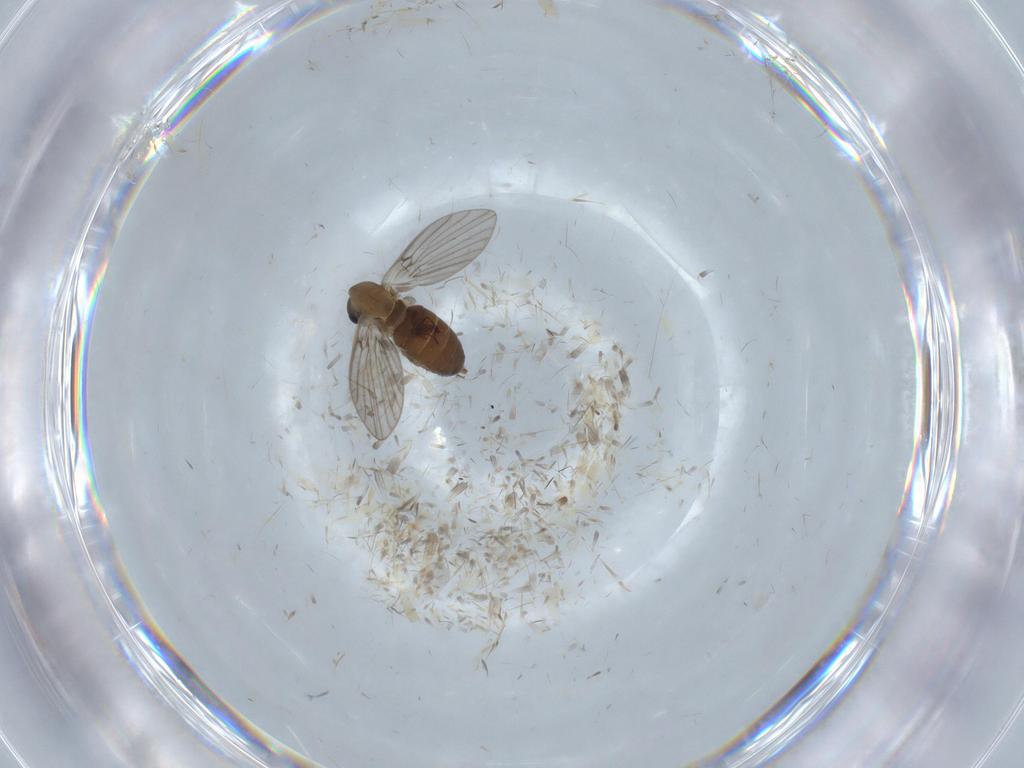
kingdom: Animalia
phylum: Arthropoda
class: Insecta
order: Diptera
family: Psychodidae
